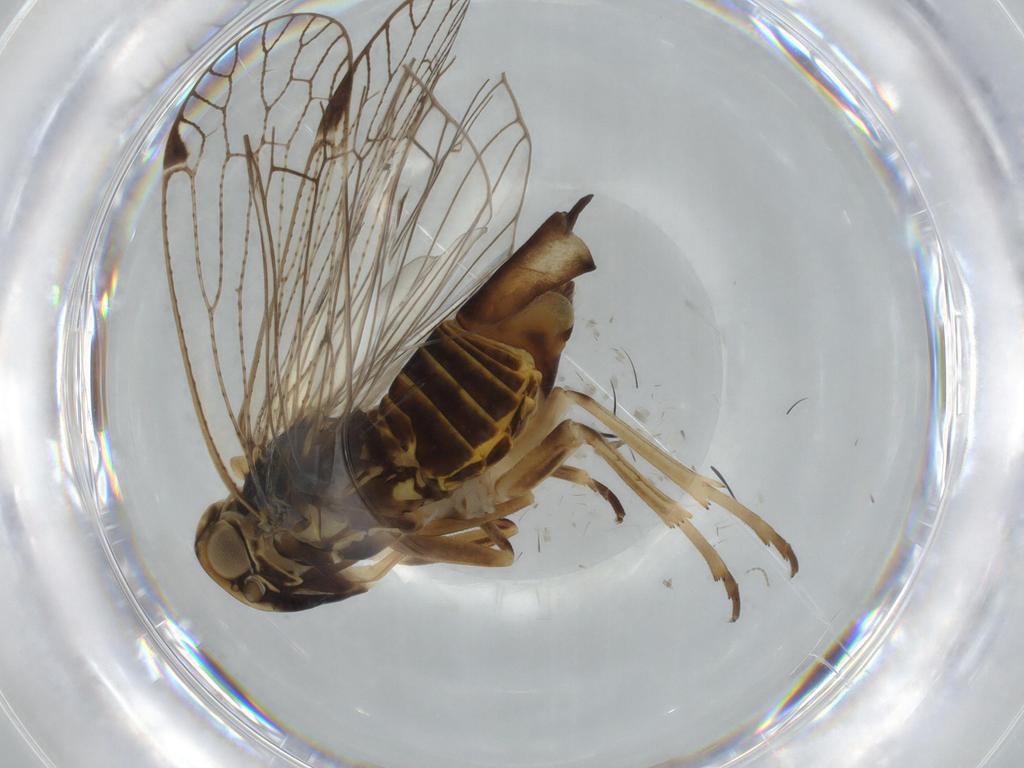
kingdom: Animalia
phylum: Arthropoda
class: Insecta
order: Hemiptera
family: Cixiidae
